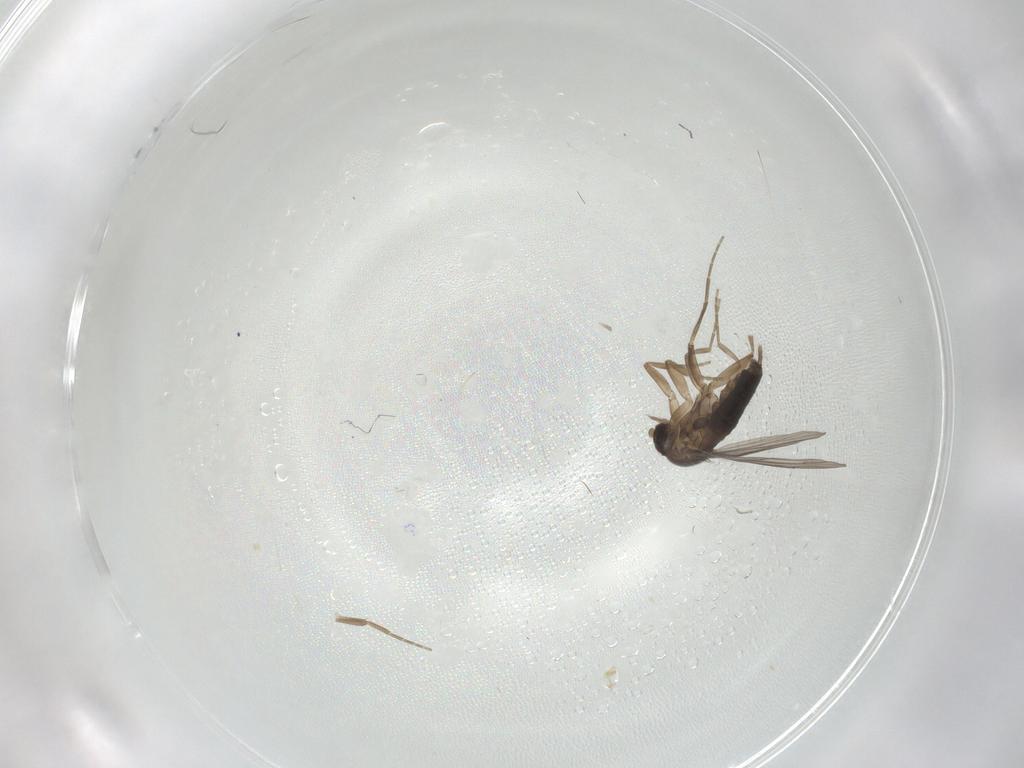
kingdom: Animalia
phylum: Arthropoda
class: Insecta
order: Diptera
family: Phoridae
